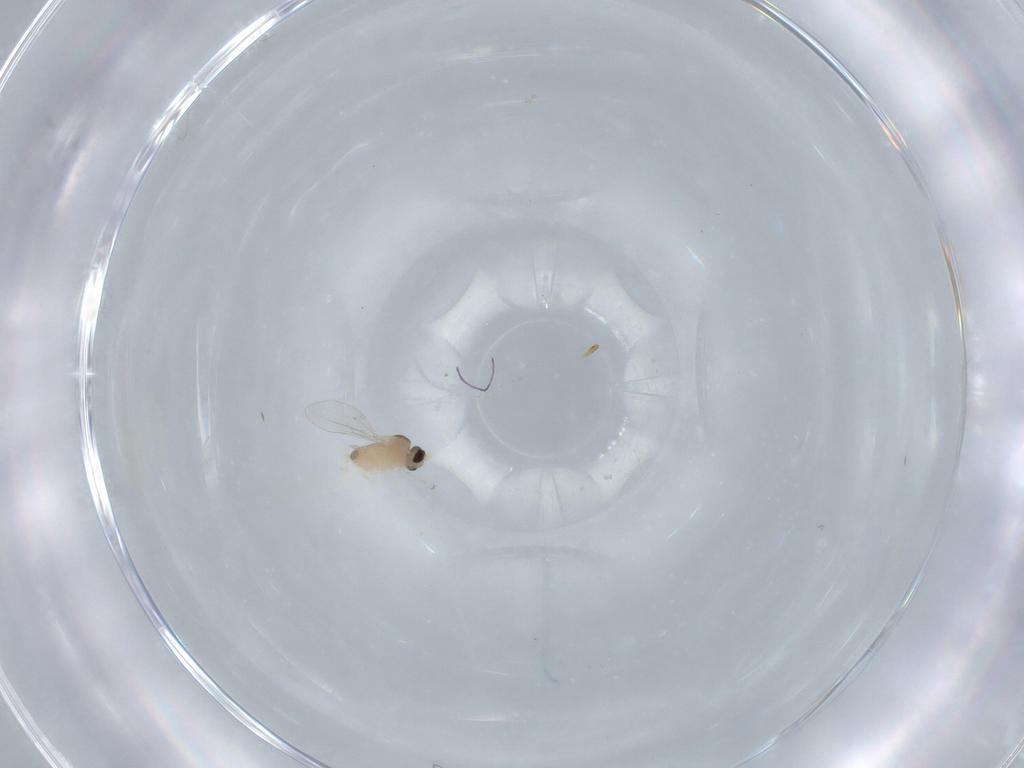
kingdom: Animalia
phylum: Arthropoda
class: Insecta
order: Diptera
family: Cecidomyiidae
